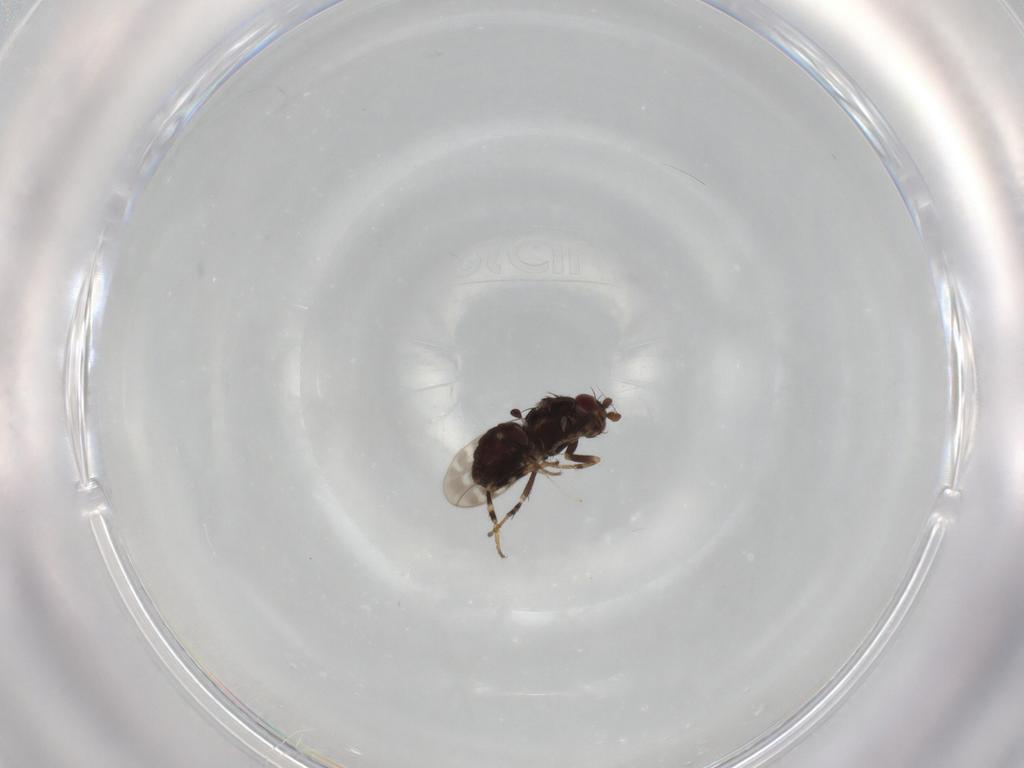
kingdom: Animalia
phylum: Arthropoda
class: Insecta
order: Diptera
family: Sphaeroceridae
